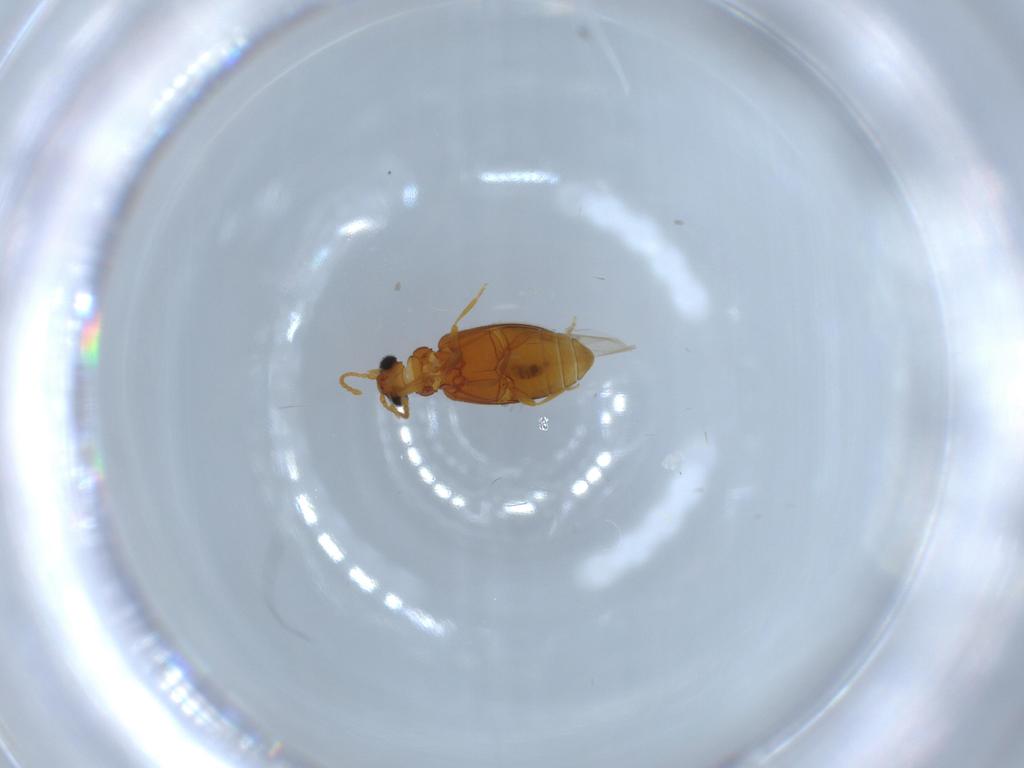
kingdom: Animalia
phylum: Arthropoda
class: Insecta
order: Coleoptera
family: Aderidae
